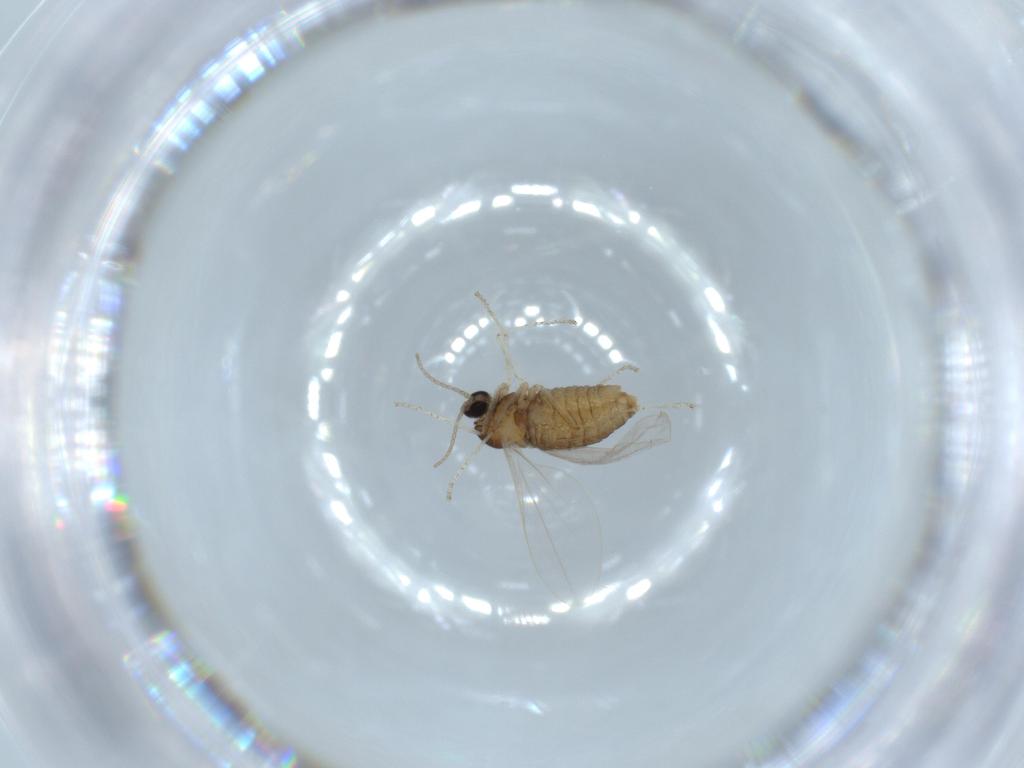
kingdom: Animalia
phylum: Arthropoda
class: Insecta
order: Diptera
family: Cecidomyiidae
